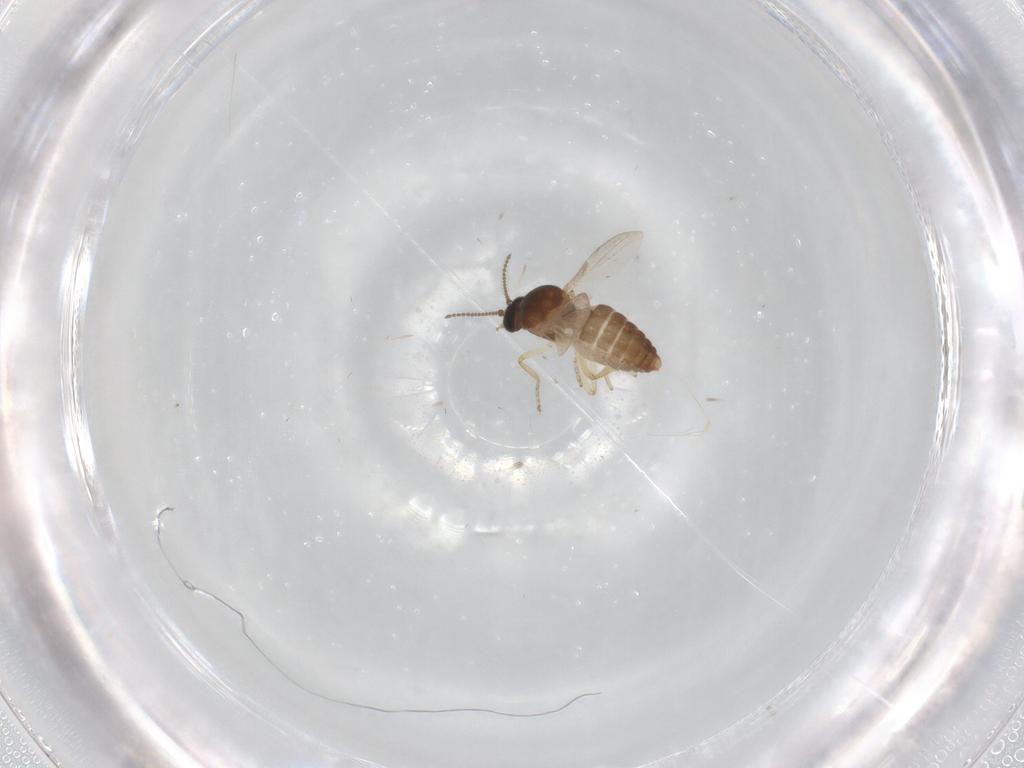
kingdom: Animalia
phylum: Arthropoda
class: Insecta
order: Diptera
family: Ceratopogonidae
